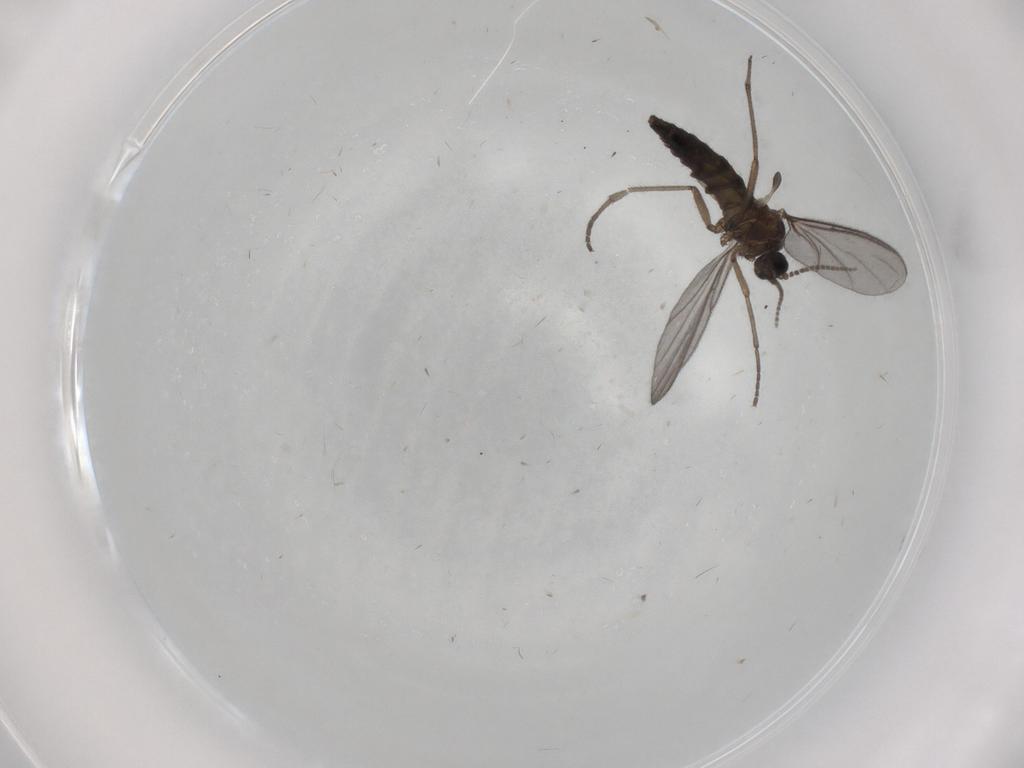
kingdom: Animalia
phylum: Arthropoda
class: Insecta
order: Diptera
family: Sciaridae
